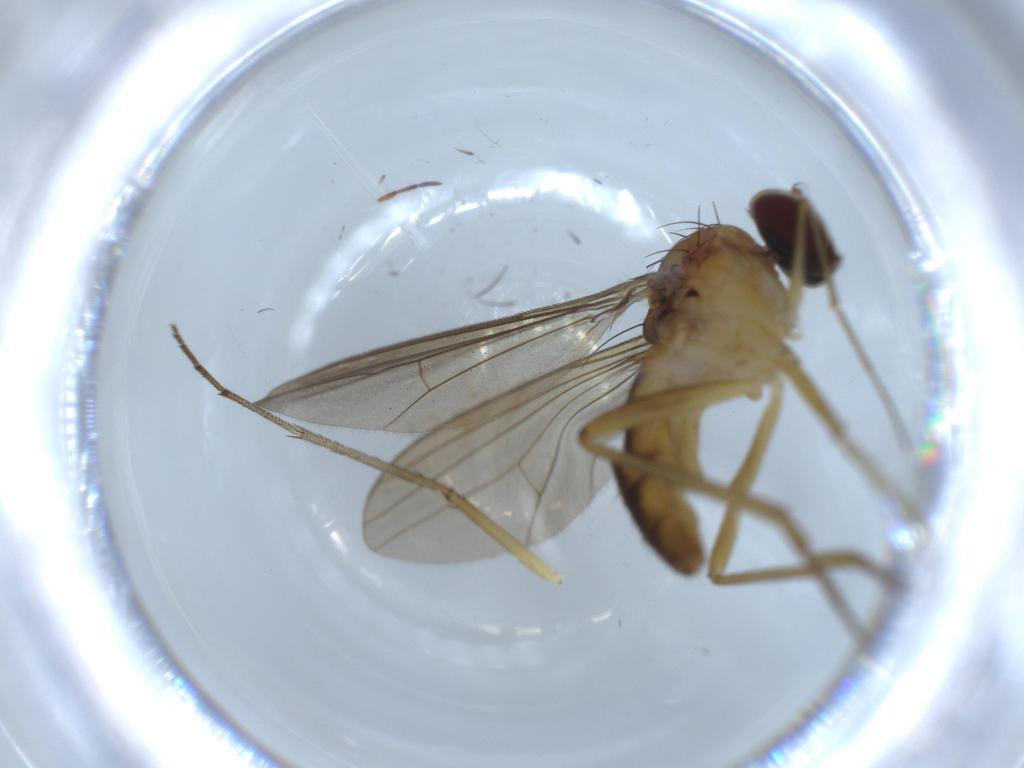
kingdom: Animalia
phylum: Arthropoda
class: Insecta
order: Diptera
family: Dolichopodidae
